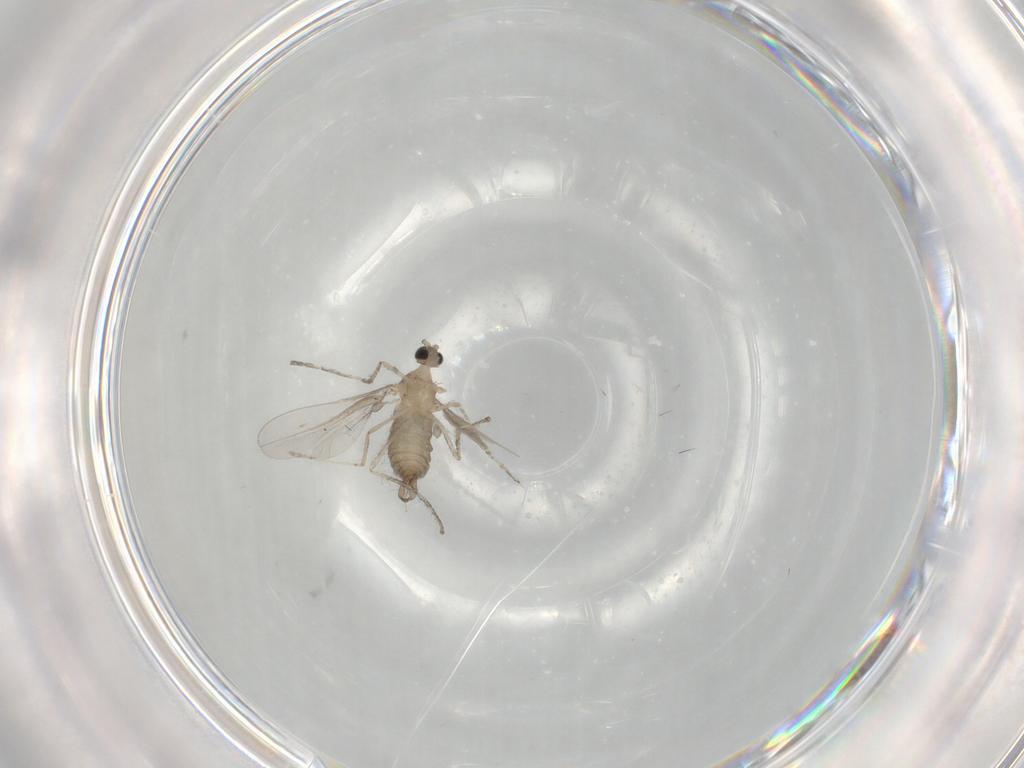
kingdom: Animalia
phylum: Arthropoda
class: Insecta
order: Diptera
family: Cecidomyiidae
